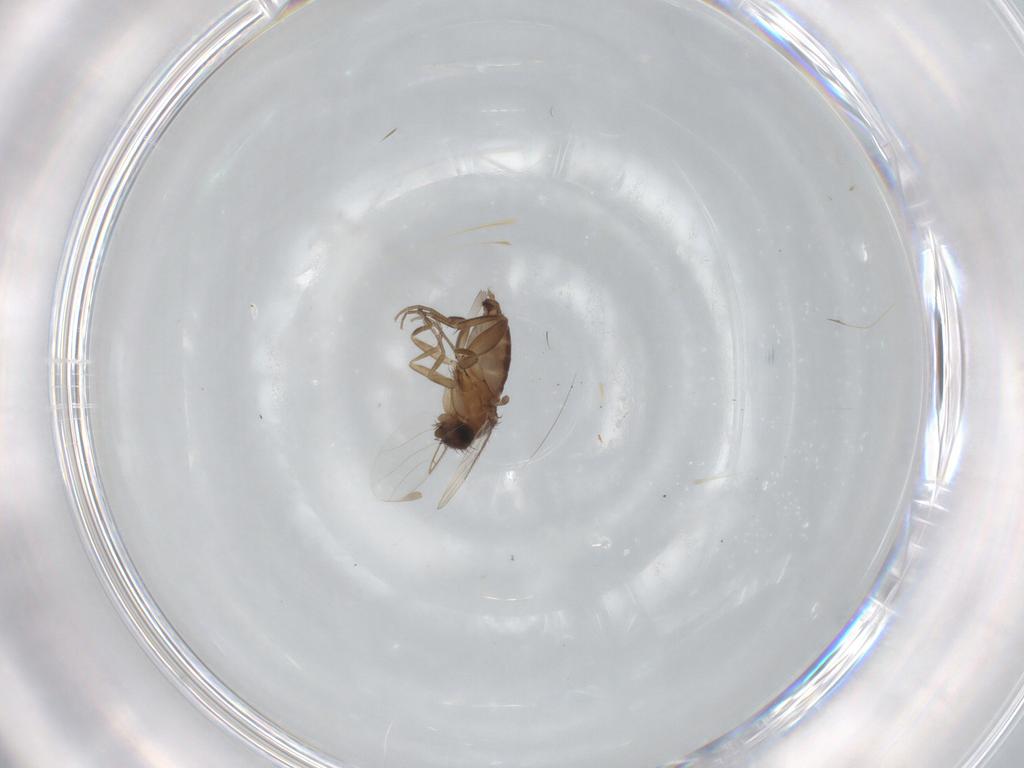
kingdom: Animalia
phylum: Arthropoda
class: Insecta
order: Diptera
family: Phoridae
